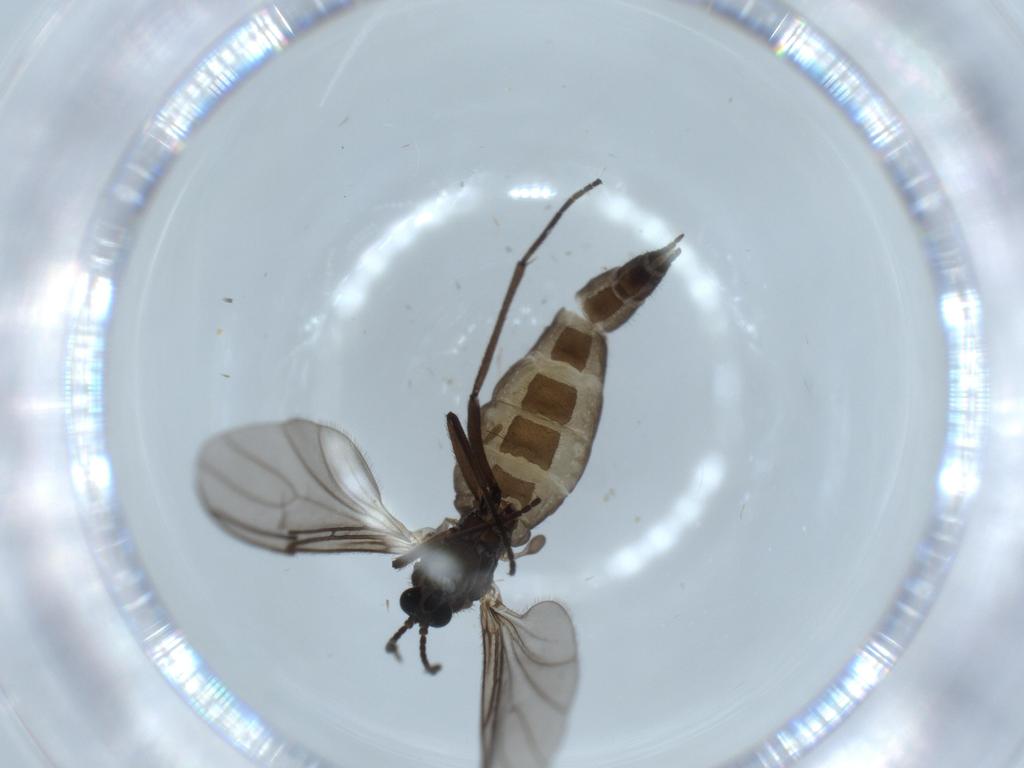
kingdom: Animalia
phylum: Arthropoda
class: Insecta
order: Diptera
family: Sciaridae
